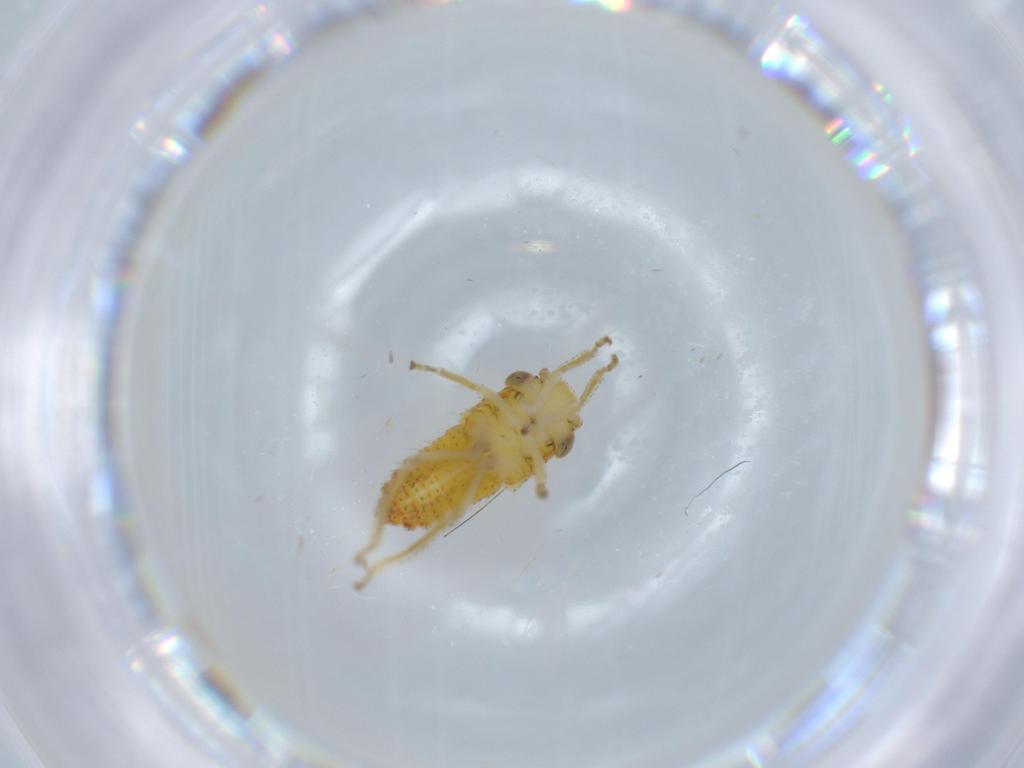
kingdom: Animalia
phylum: Arthropoda
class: Insecta
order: Hemiptera
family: Cicadellidae
